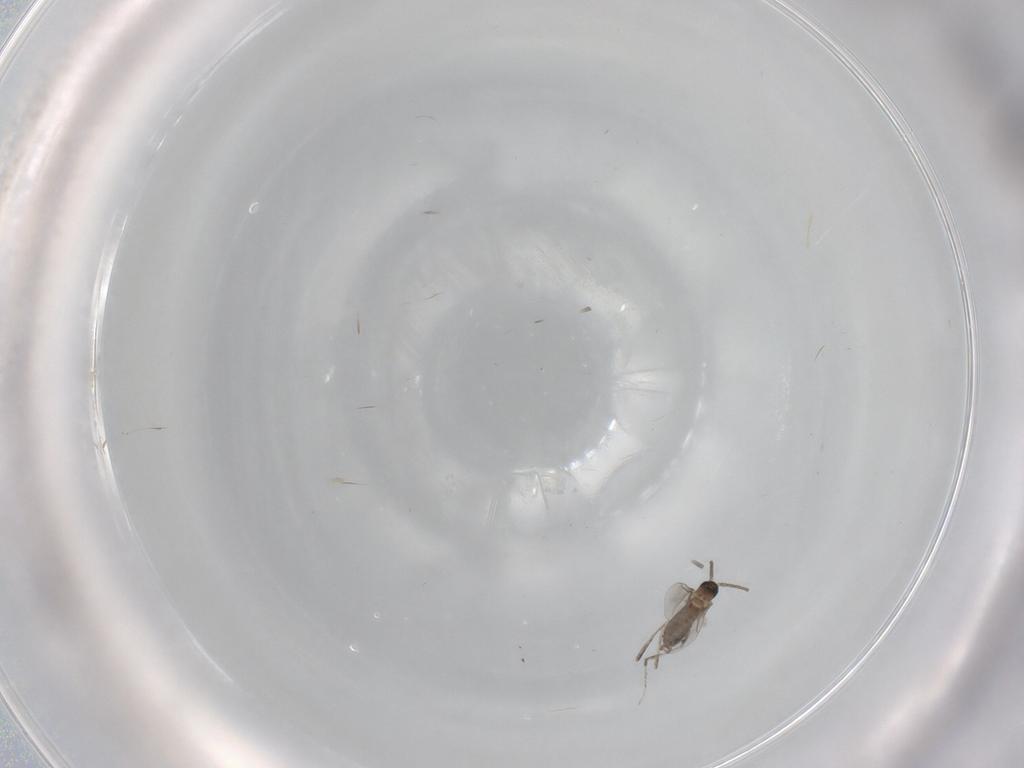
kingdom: Animalia
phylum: Arthropoda
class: Insecta
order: Diptera
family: Cecidomyiidae
